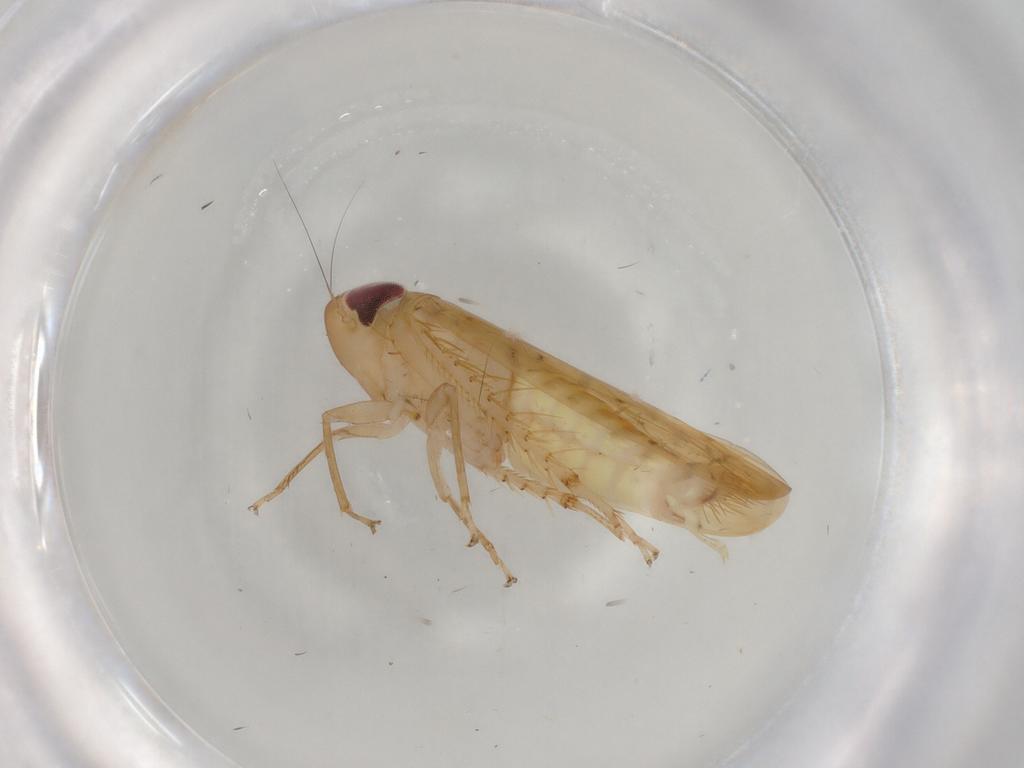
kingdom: Animalia
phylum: Arthropoda
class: Insecta
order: Hemiptera
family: Cicadellidae
